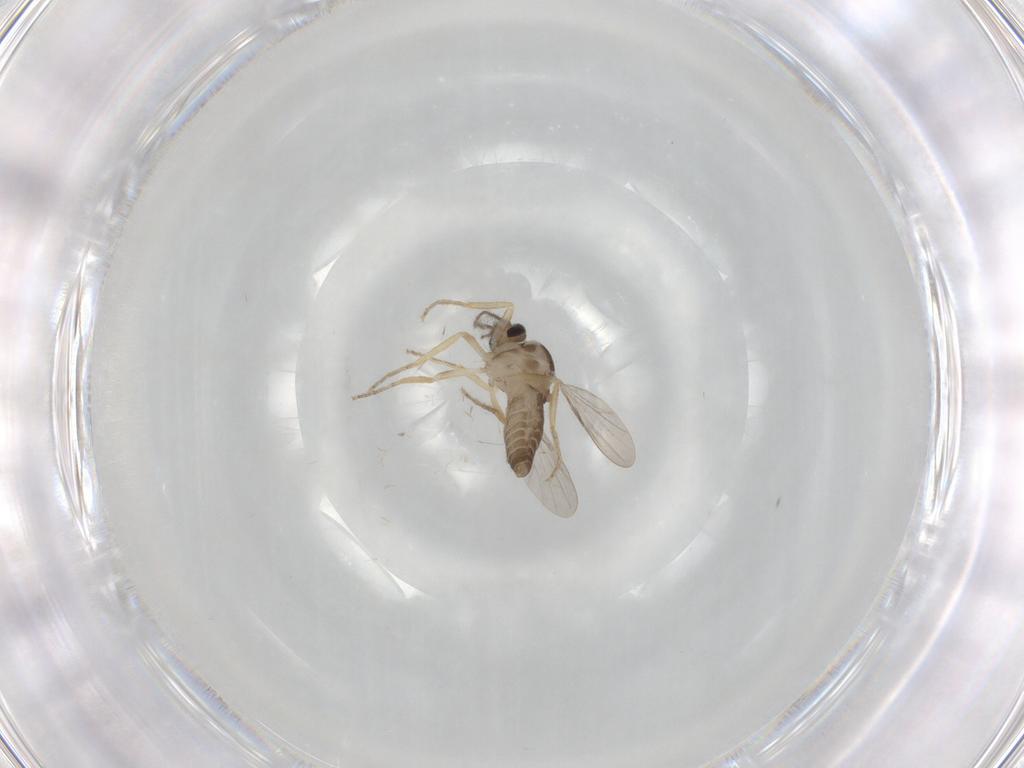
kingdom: Animalia
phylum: Arthropoda
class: Insecta
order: Diptera
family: Ceratopogonidae
